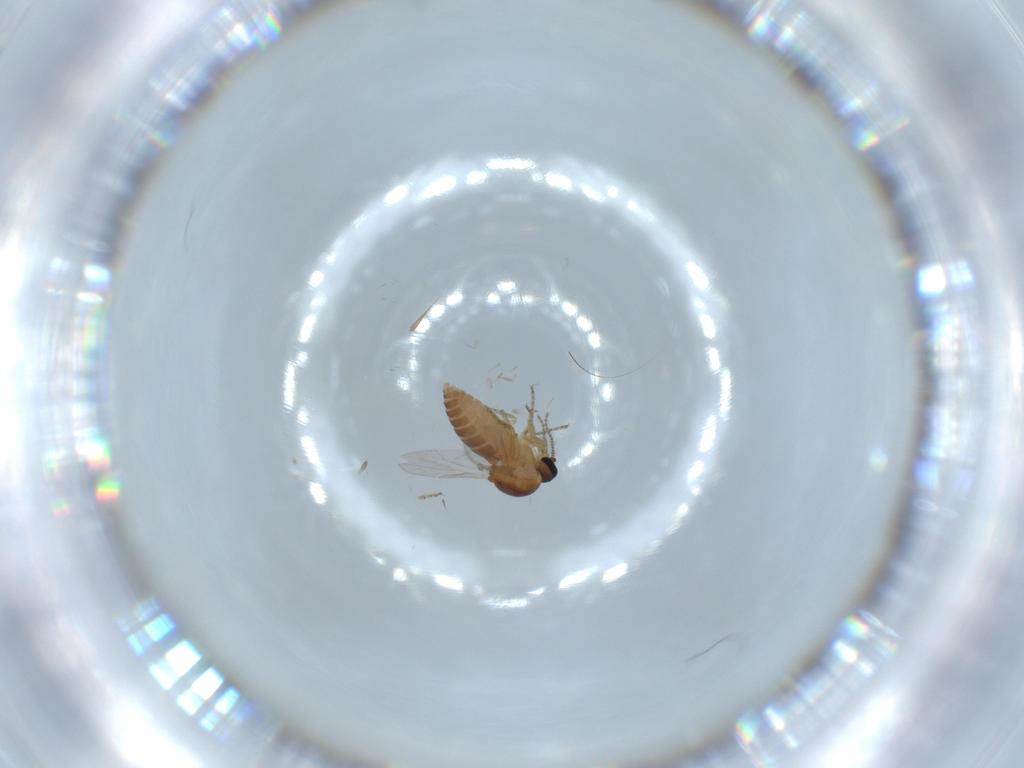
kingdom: Animalia
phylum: Arthropoda
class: Insecta
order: Diptera
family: Ceratopogonidae
